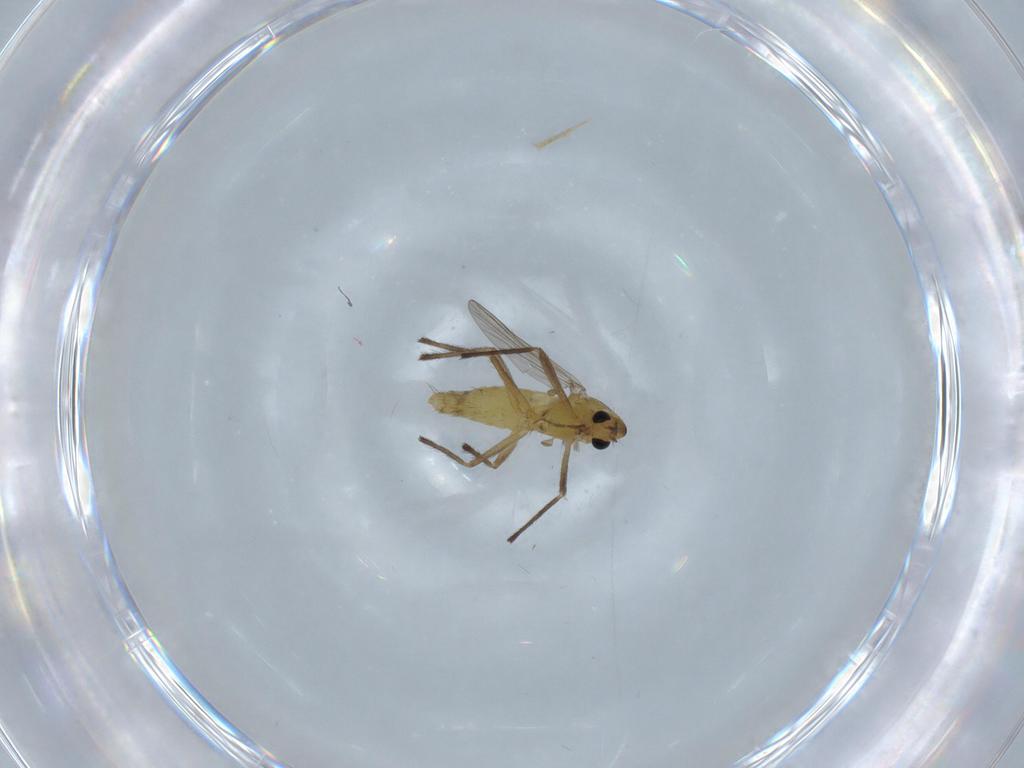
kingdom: Animalia
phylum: Arthropoda
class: Insecta
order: Diptera
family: Chironomidae
